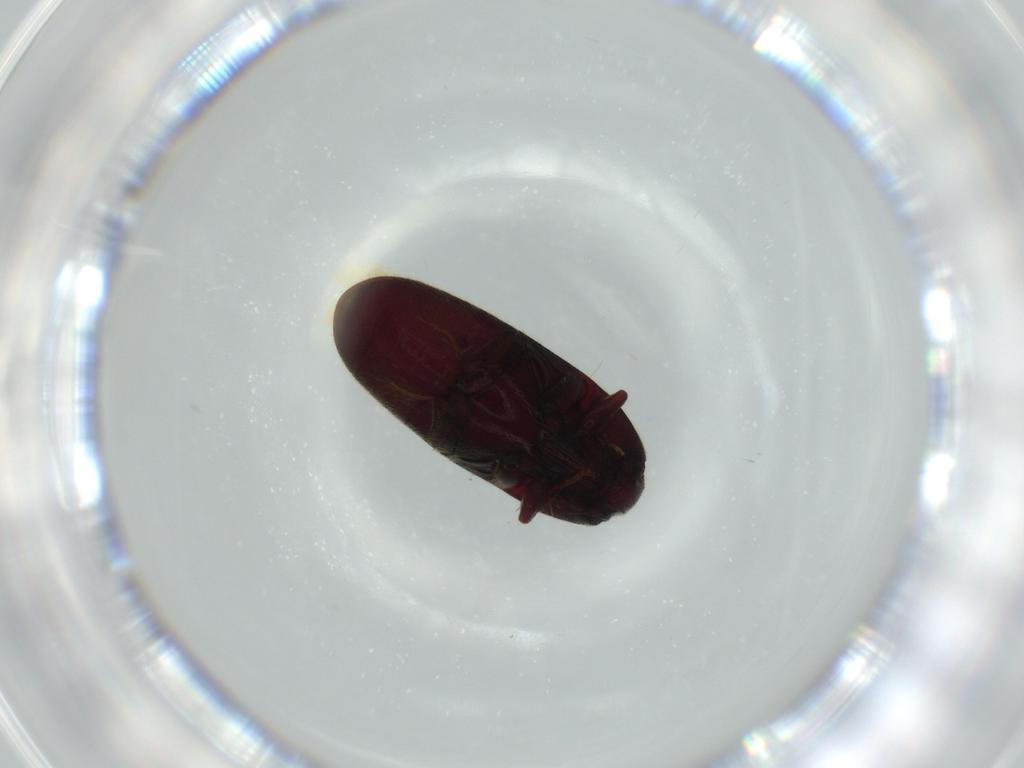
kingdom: Animalia
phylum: Arthropoda
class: Insecta
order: Coleoptera
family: Throscidae
